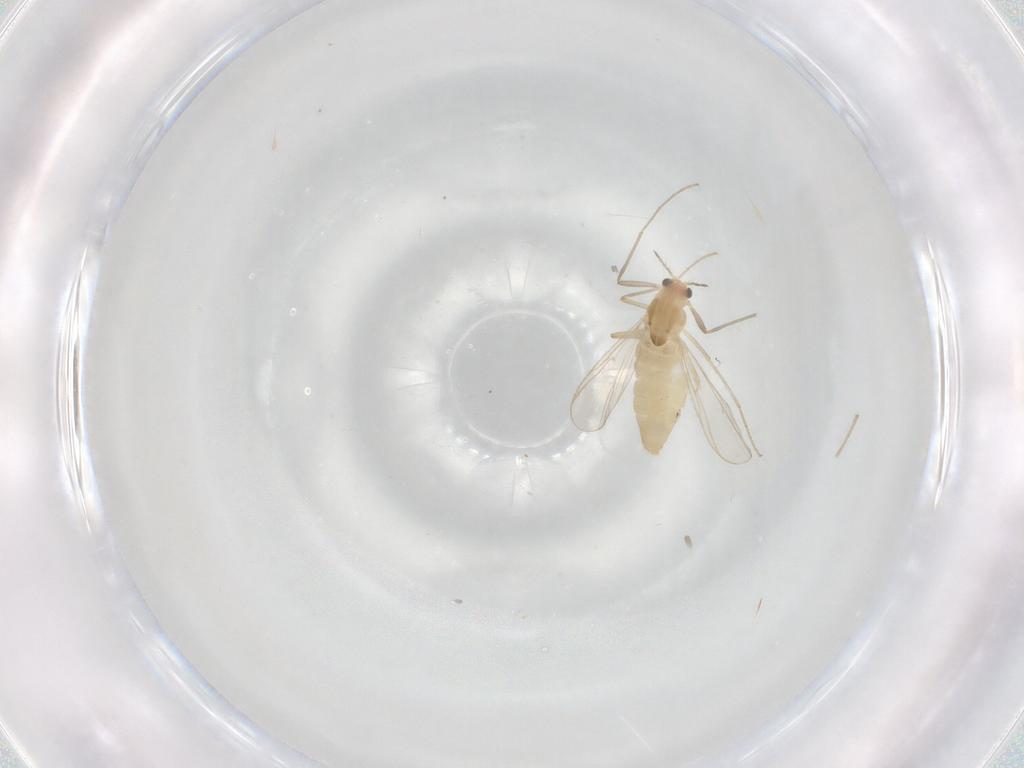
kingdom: Animalia
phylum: Arthropoda
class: Insecta
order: Diptera
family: Chironomidae
